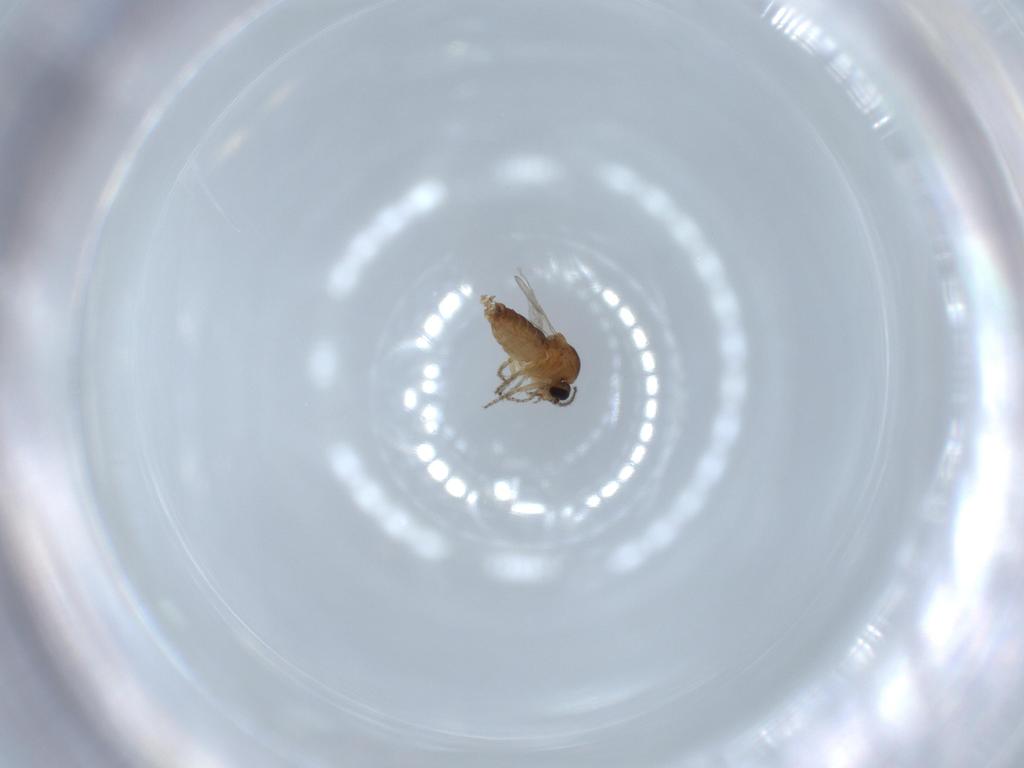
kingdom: Animalia
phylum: Arthropoda
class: Insecta
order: Diptera
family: Ceratopogonidae
